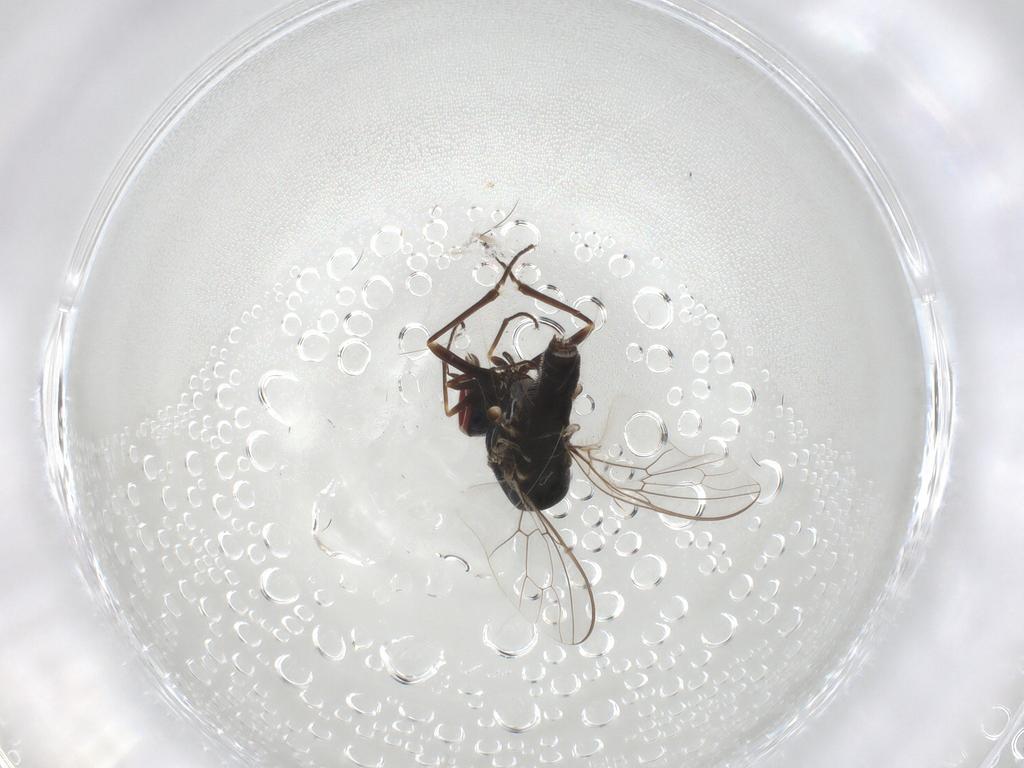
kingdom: Animalia
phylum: Arthropoda
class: Insecta
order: Diptera
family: Bombyliidae
